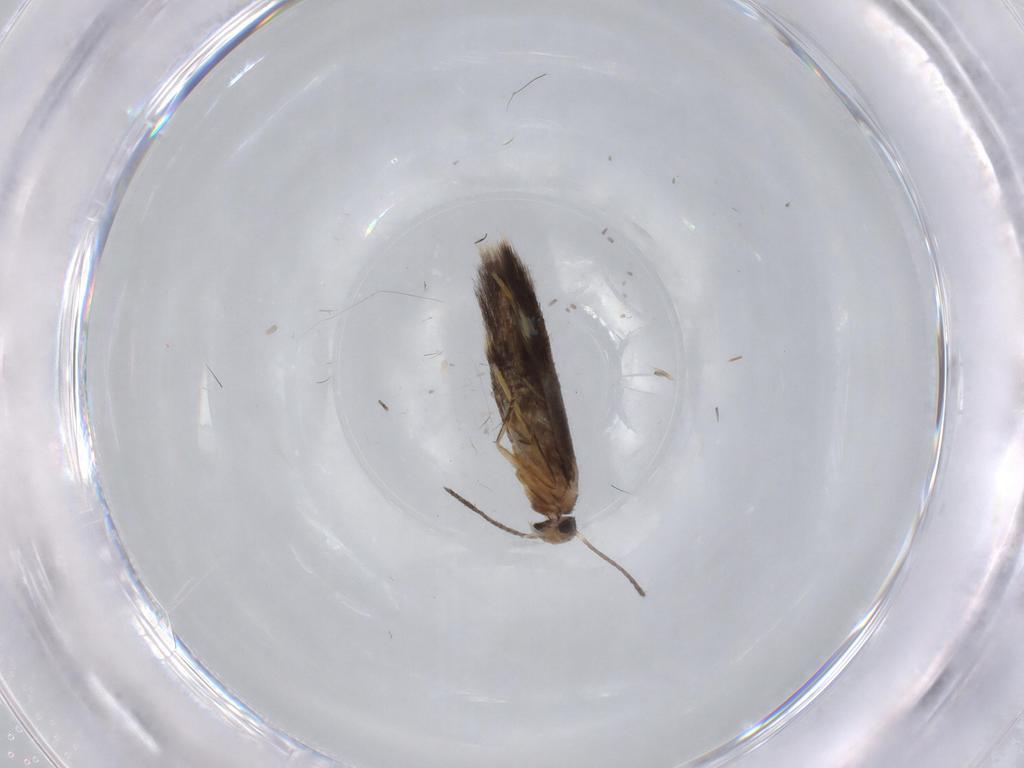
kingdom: Animalia
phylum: Arthropoda
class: Insecta
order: Lepidoptera
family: Heliozelidae
